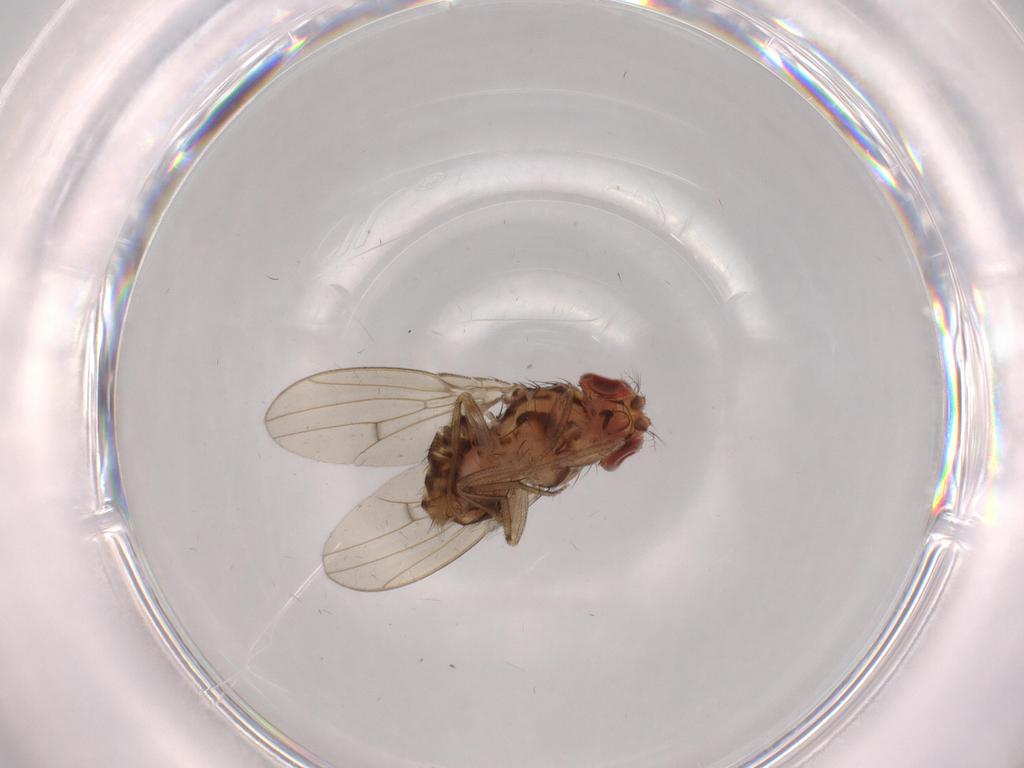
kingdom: Animalia
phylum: Arthropoda
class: Insecta
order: Diptera
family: Drosophilidae
